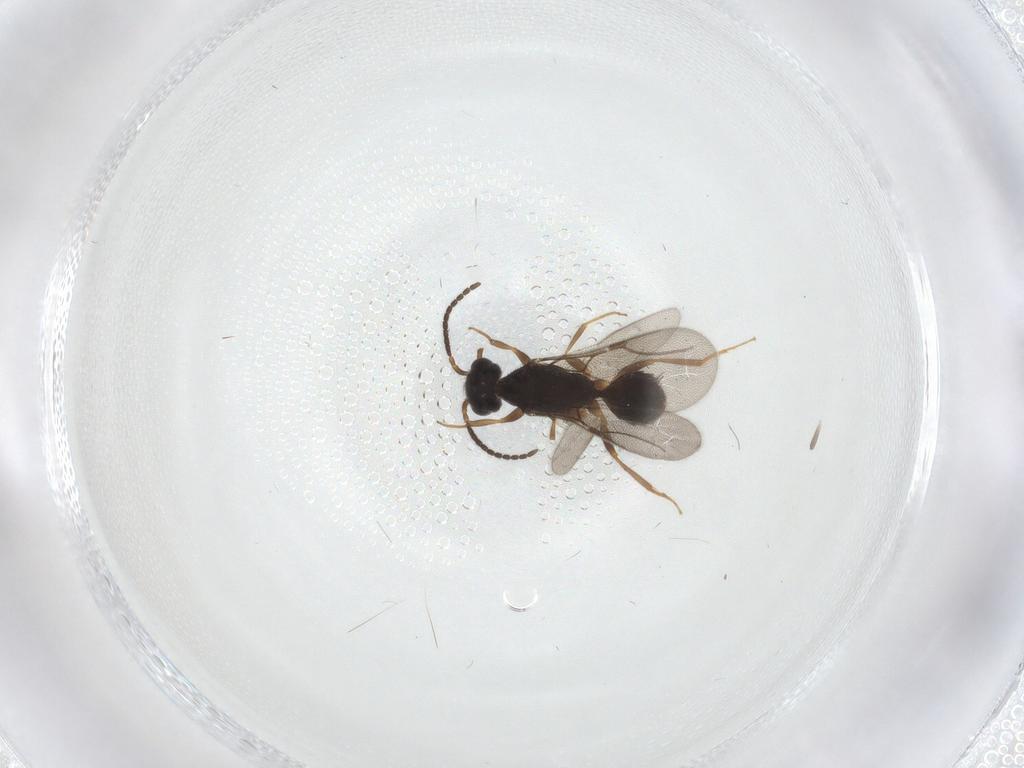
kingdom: Animalia
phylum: Arthropoda
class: Insecta
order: Hymenoptera
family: Bethylidae
